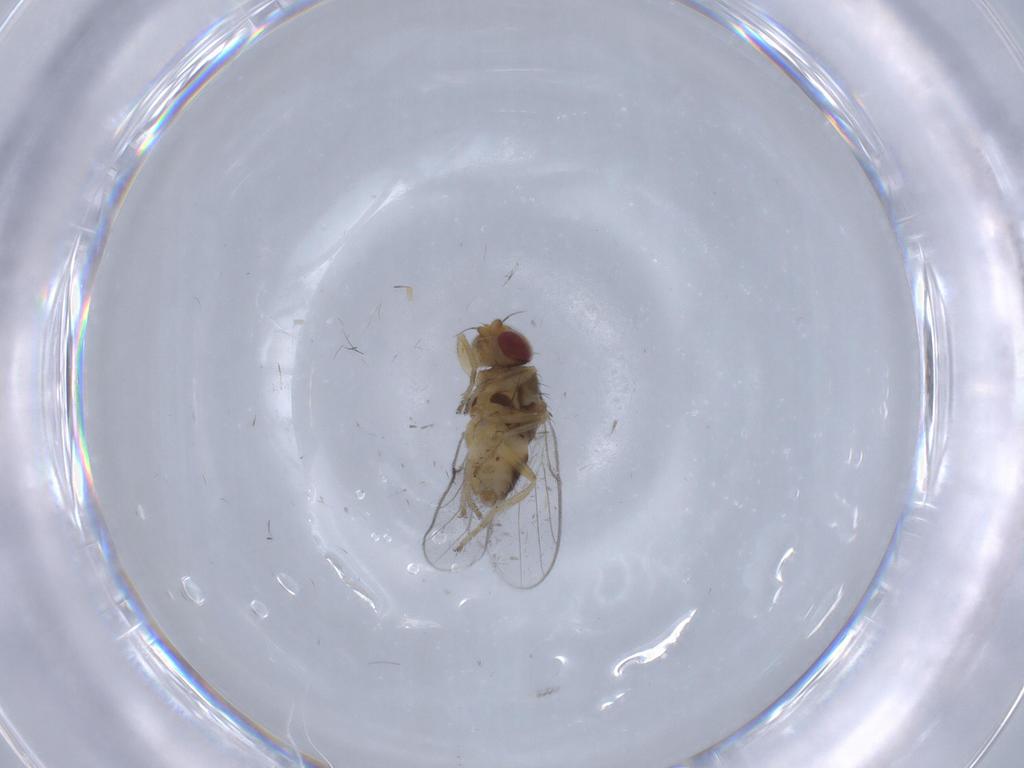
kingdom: Animalia
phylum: Arthropoda
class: Insecta
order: Diptera
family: Chloropidae
